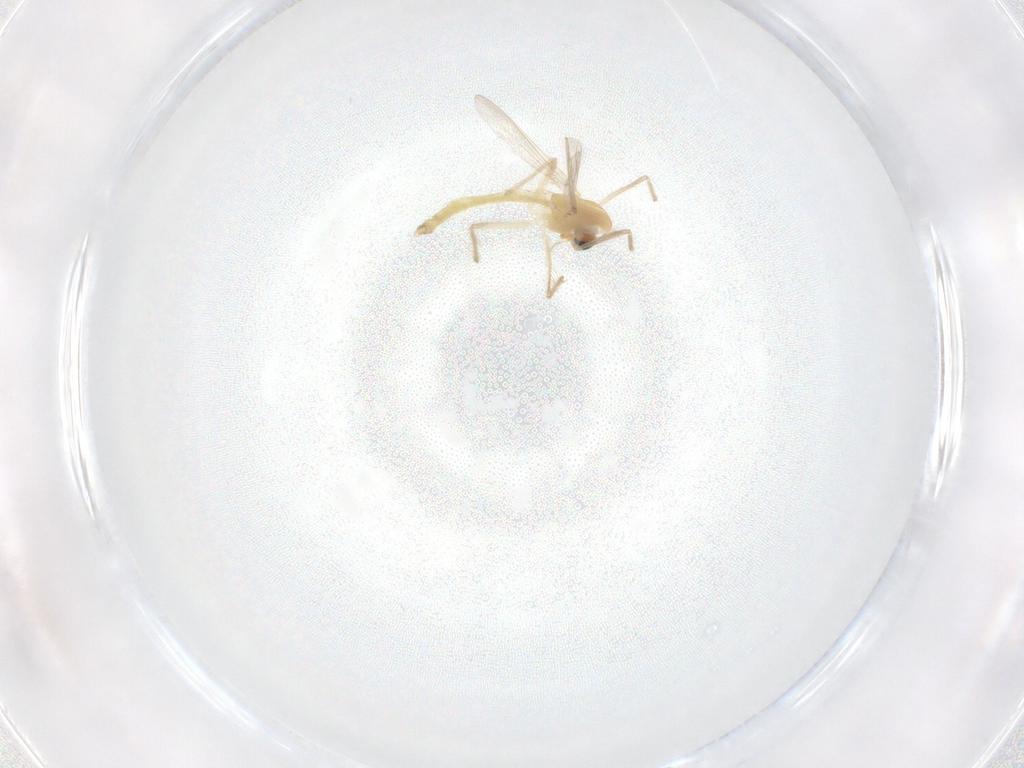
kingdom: Animalia
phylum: Arthropoda
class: Insecta
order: Diptera
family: Chironomidae
